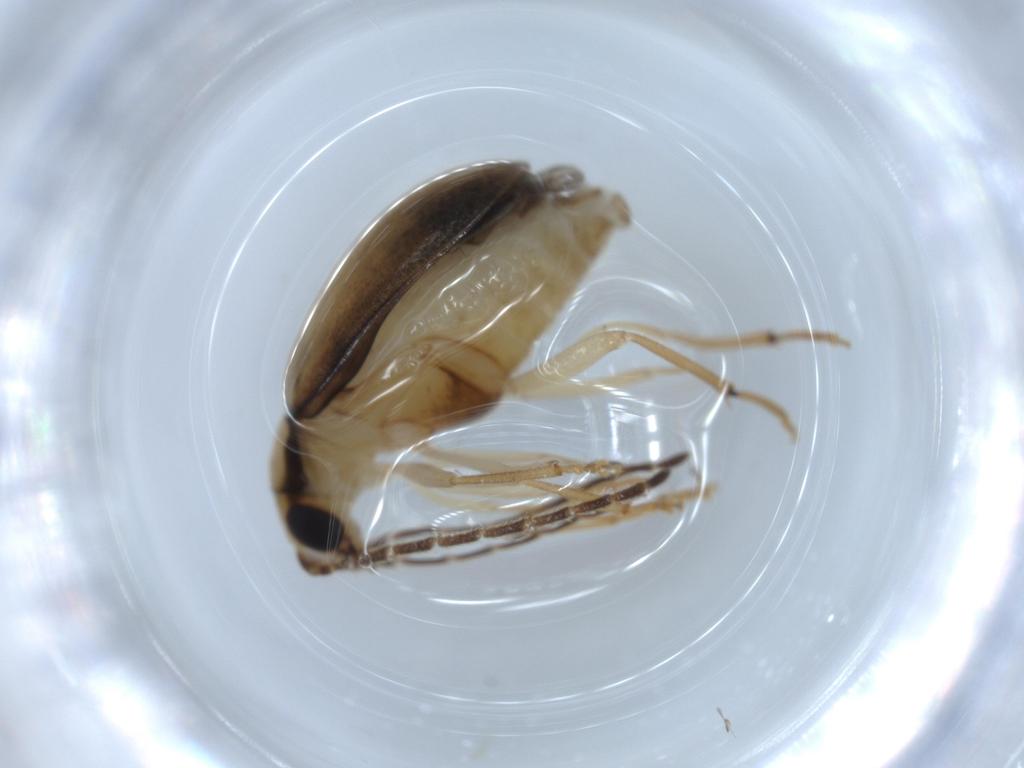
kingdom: Animalia
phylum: Arthropoda
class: Insecta
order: Coleoptera
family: Chrysomelidae
